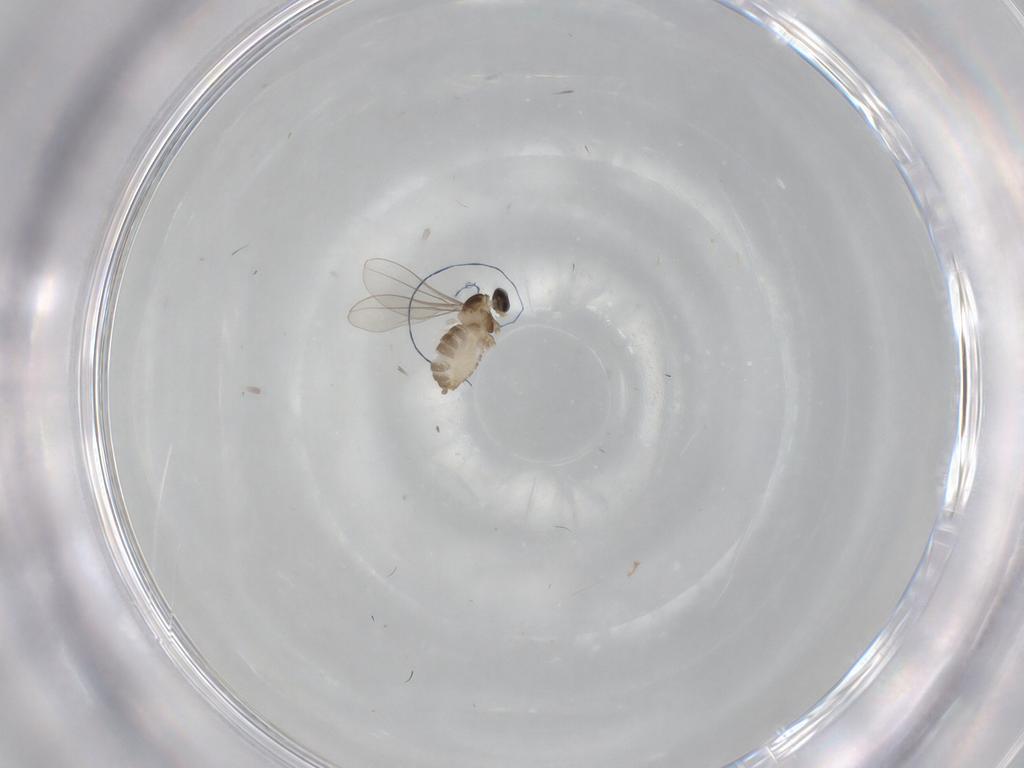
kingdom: Animalia
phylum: Arthropoda
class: Insecta
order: Diptera
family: Cecidomyiidae
